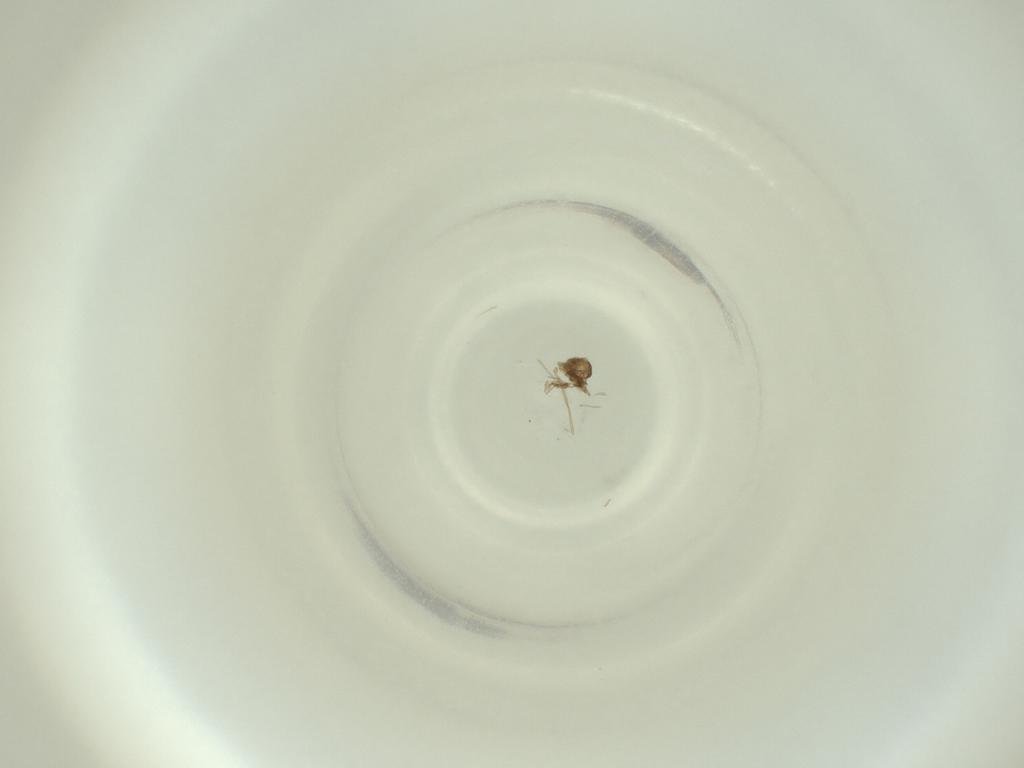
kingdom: Animalia
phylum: Arthropoda
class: Insecta
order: Diptera
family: Cecidomyiidae
